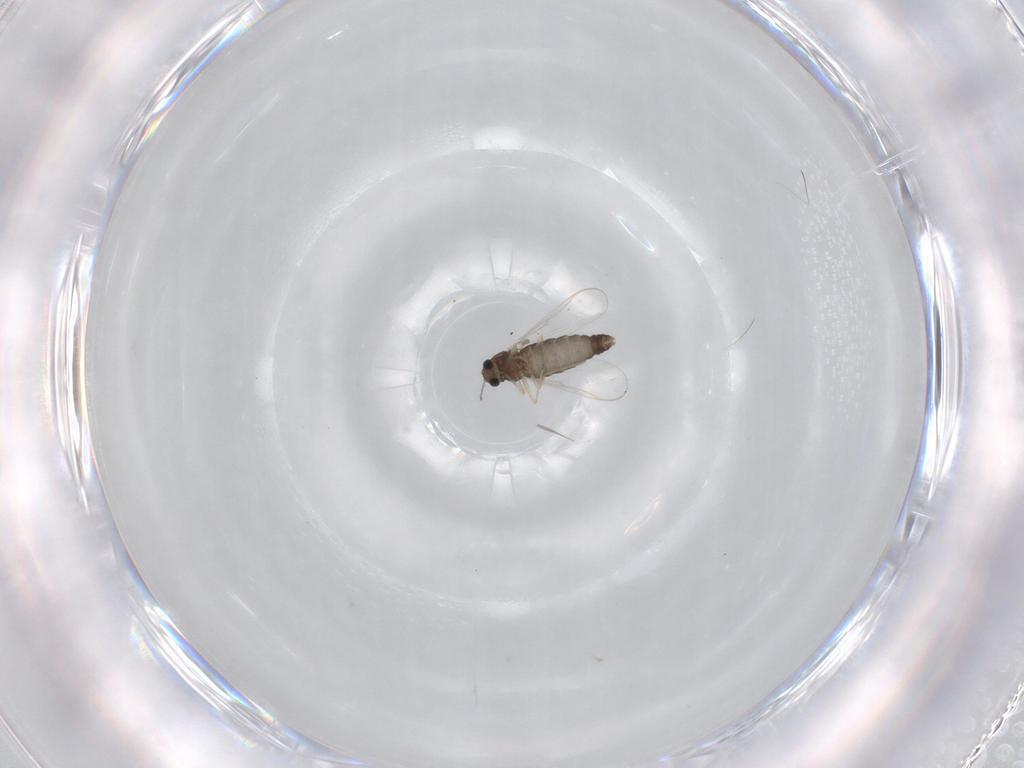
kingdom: Animalia
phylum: Arthropoda
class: Insecta
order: Diptera
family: Chironomidae
